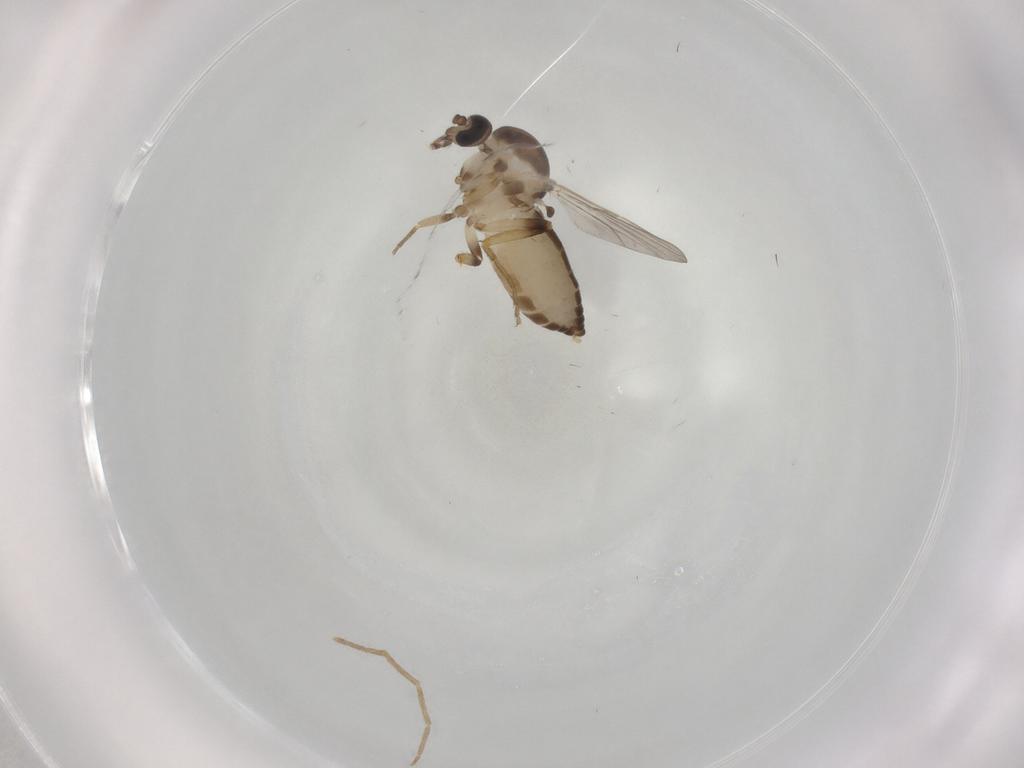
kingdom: Animalia
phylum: Arthropoda
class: Insecta
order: Diptera
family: Ceratopogonidae
